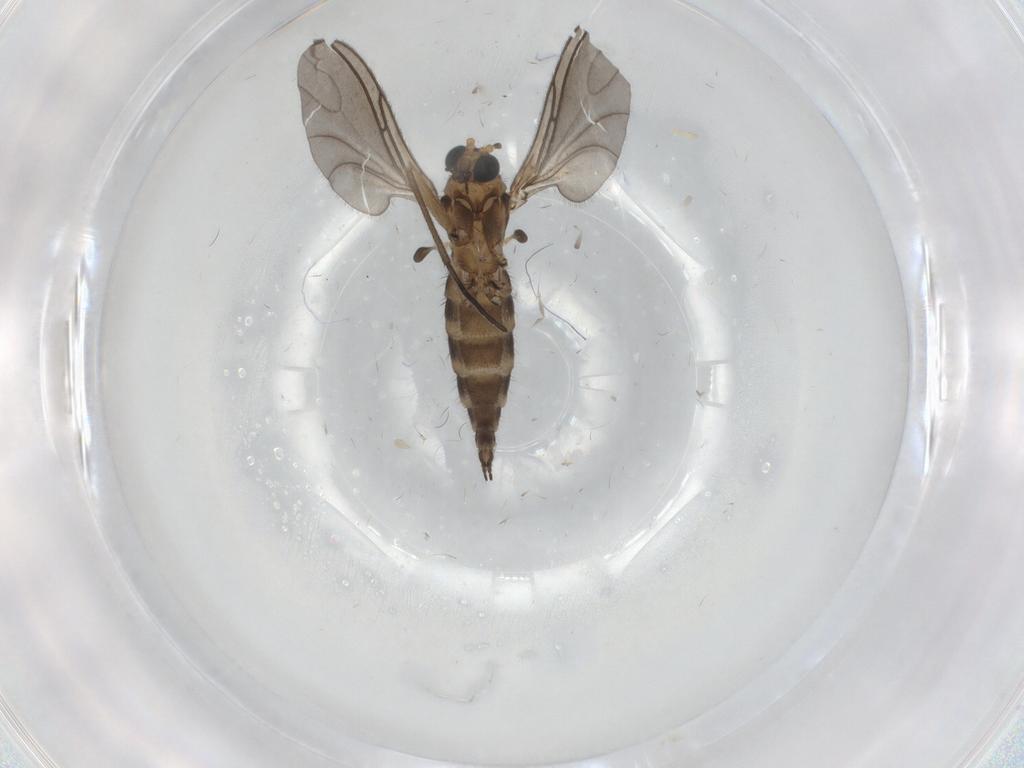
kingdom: Animalia
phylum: Arthropoda
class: Insecta
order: Diptera
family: Sciaridae
